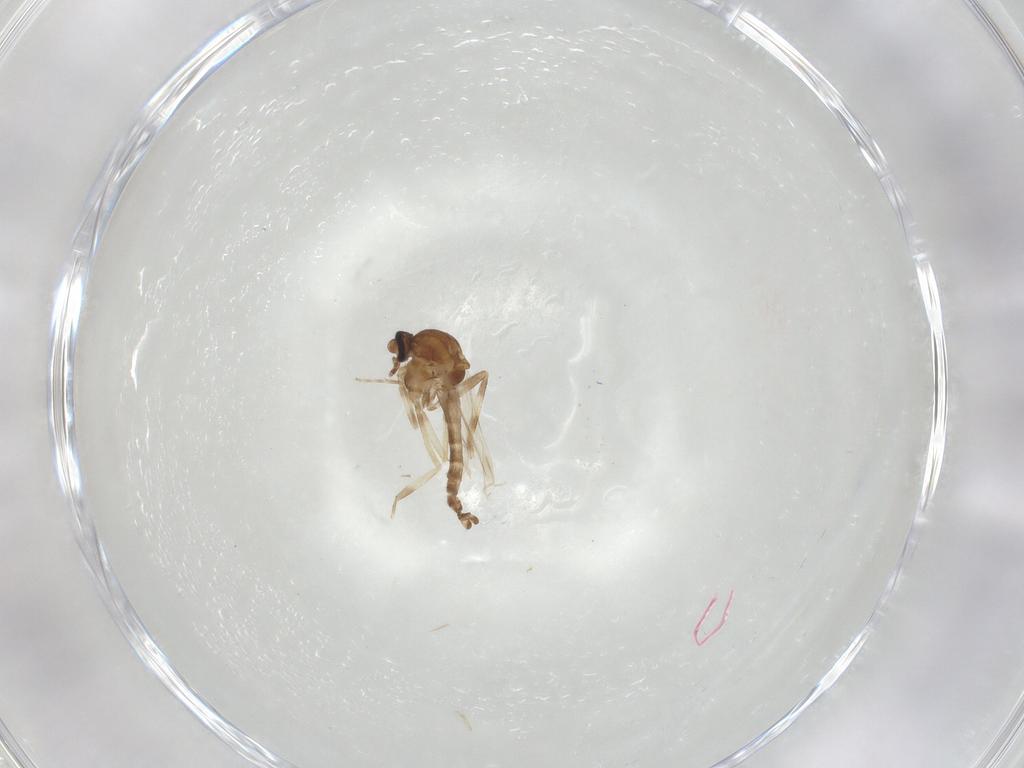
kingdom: Animalia
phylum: Arthropoda
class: Insecta
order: Diptera
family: Ceratopogonidae
